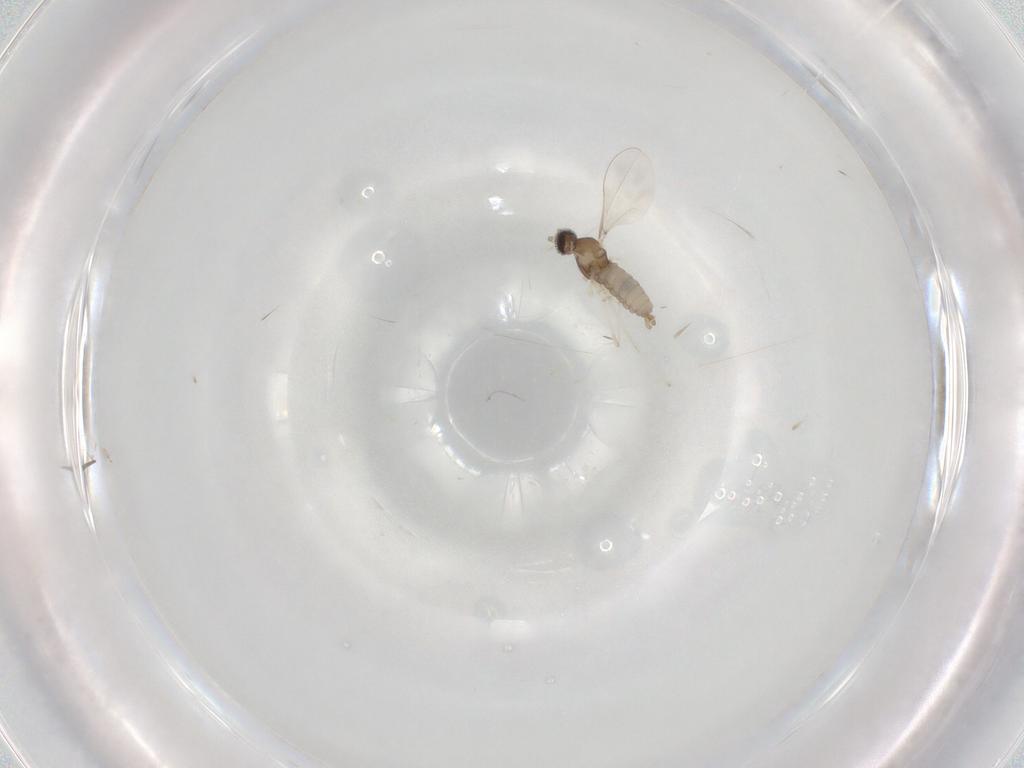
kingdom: Animalia
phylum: Arthropoda
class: Insecta
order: Diptera
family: Cecidomyiidae
